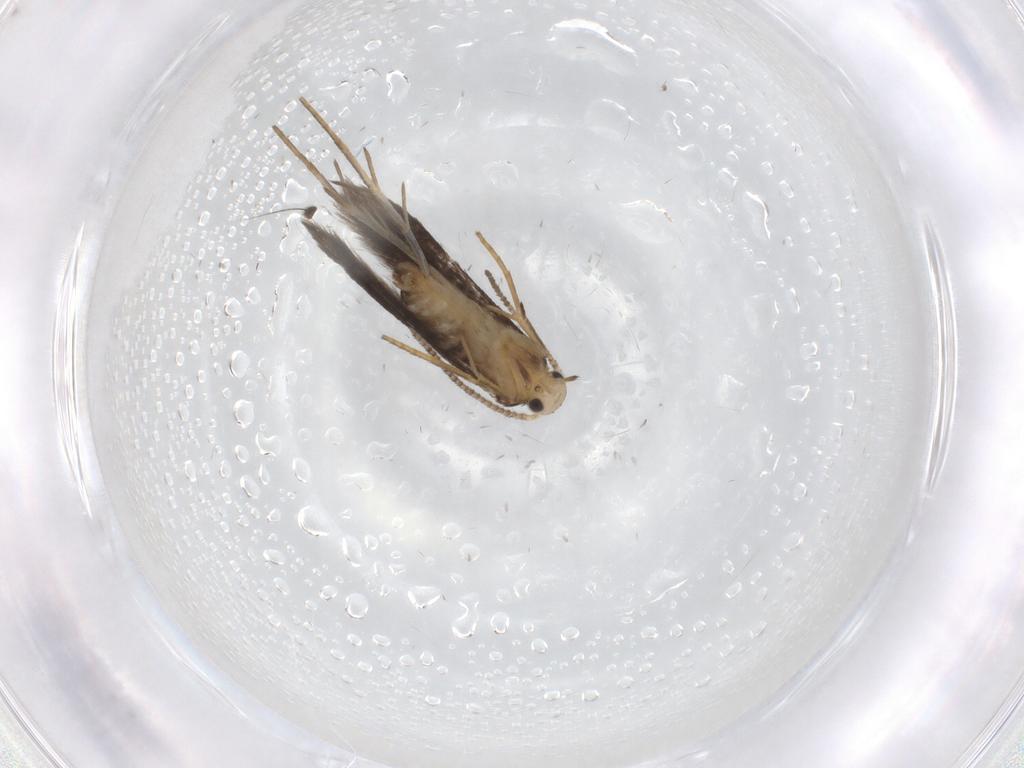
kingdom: Animalia
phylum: Arthropoda
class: Insecta
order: Lepidoptera
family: Schreckensteiniidae
